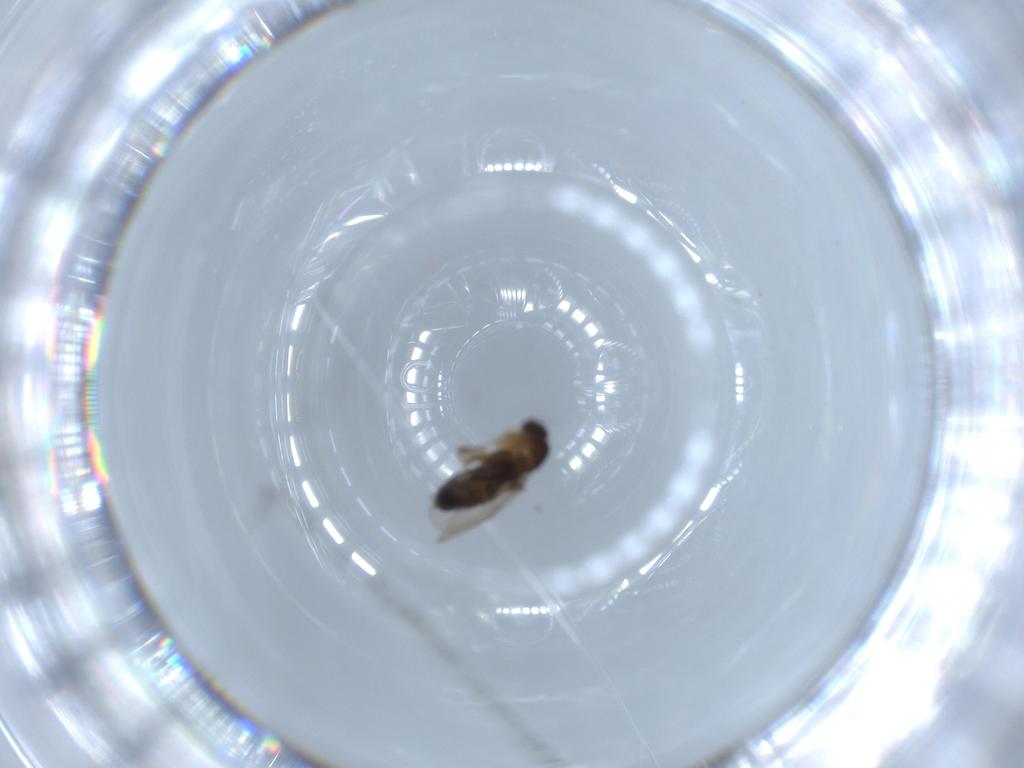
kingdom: Animalia
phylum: Arthropoda
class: Insecta
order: Diptera
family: Phoridae
